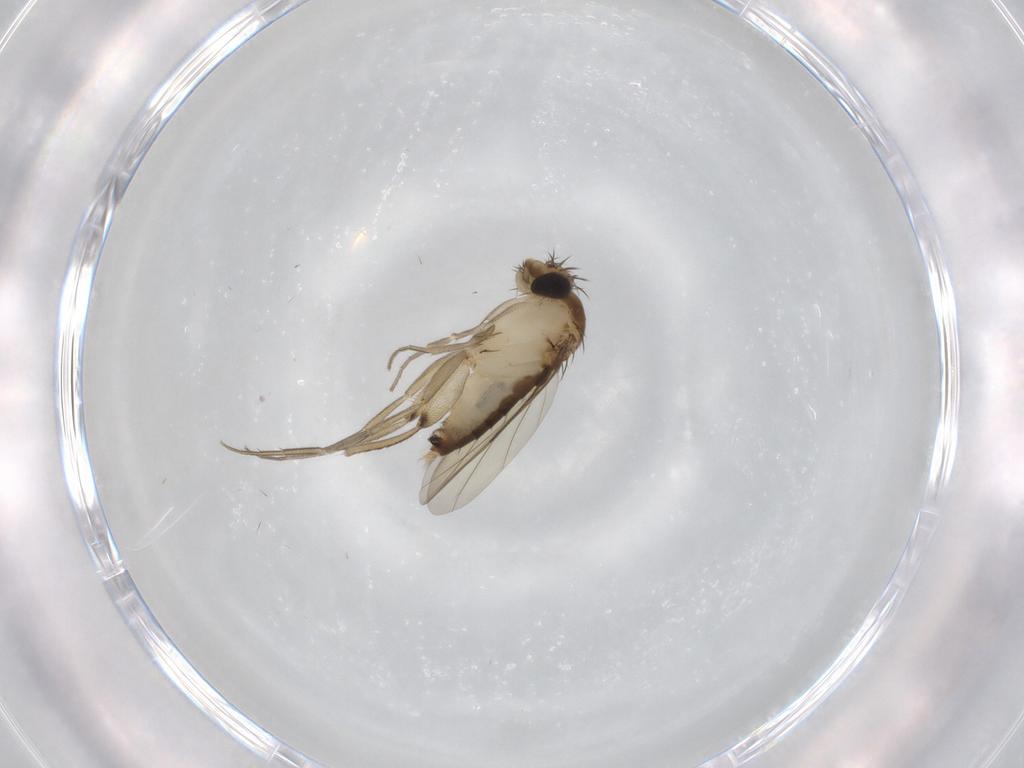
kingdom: Animalia
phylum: Arthropoda
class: Insecta
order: Diptera
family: Phoridae
